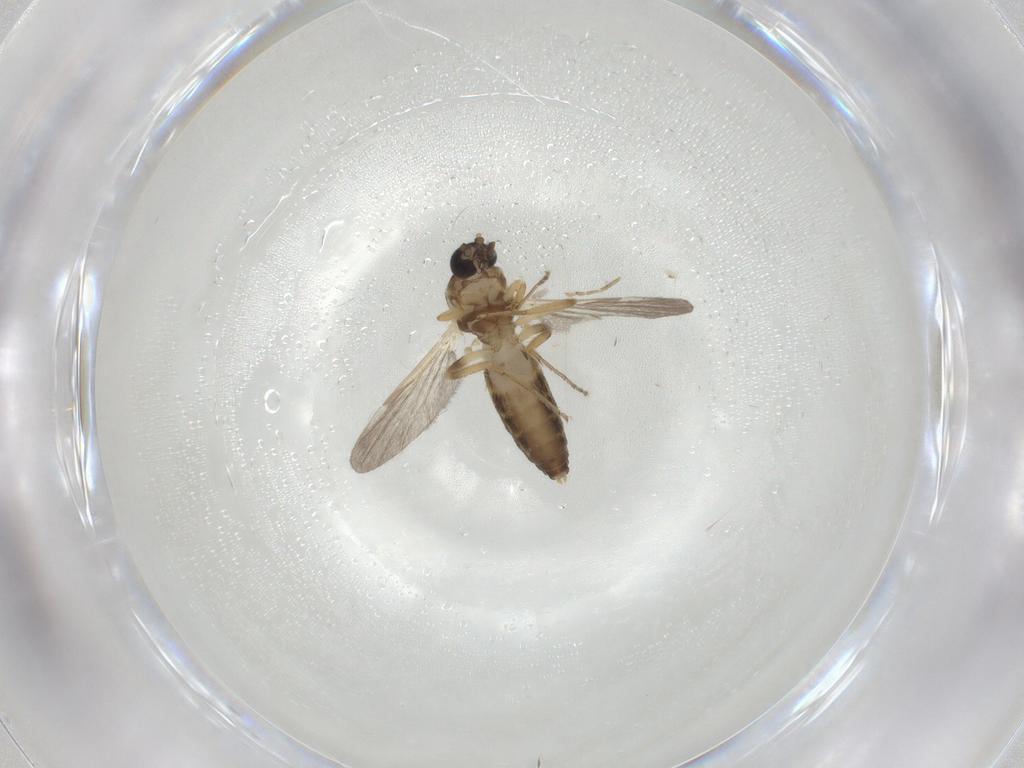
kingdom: Animalia
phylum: Arthropoda
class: Insecta
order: Diptera
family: Ceratopogonidae
